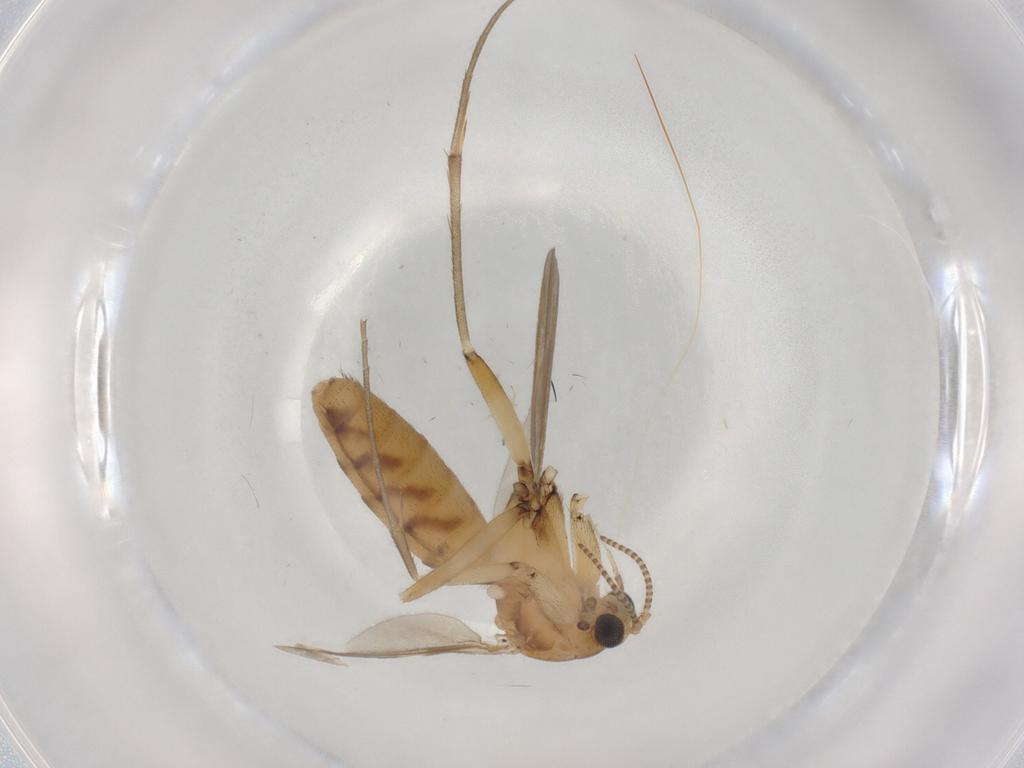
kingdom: Animalia
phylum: Arthropoda
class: Insecta
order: Diptera
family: Mycetophilidae
